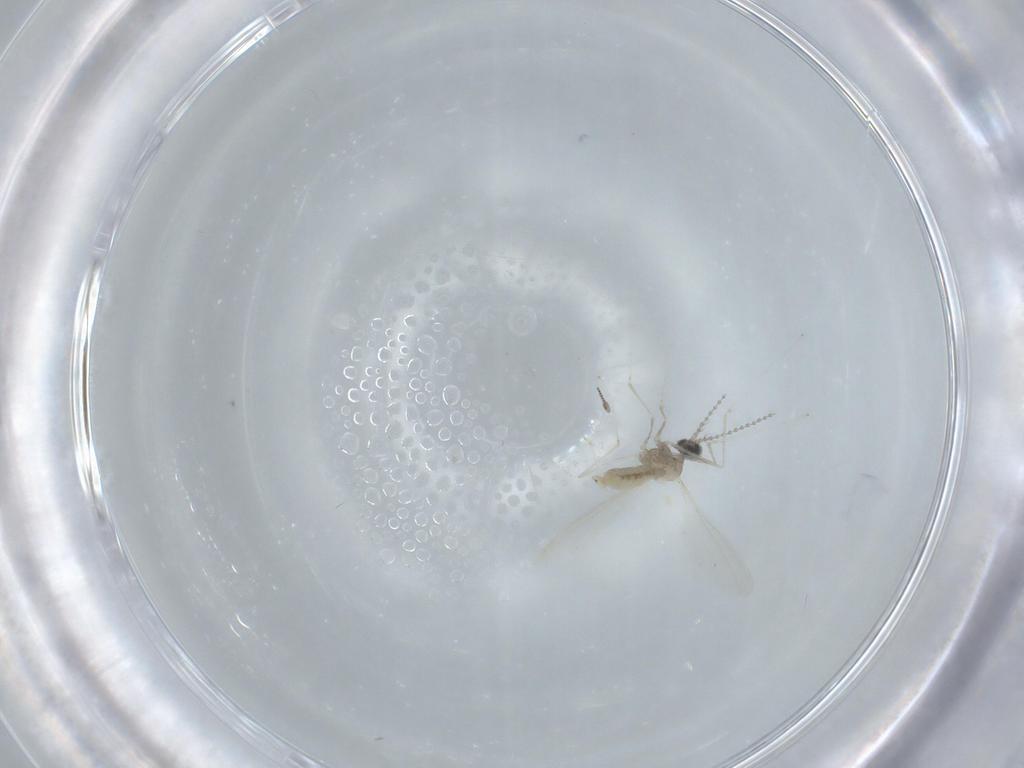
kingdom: Animalia
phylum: Arthropoda
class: Insecta
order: Diptera
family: Cecidomyiidae
